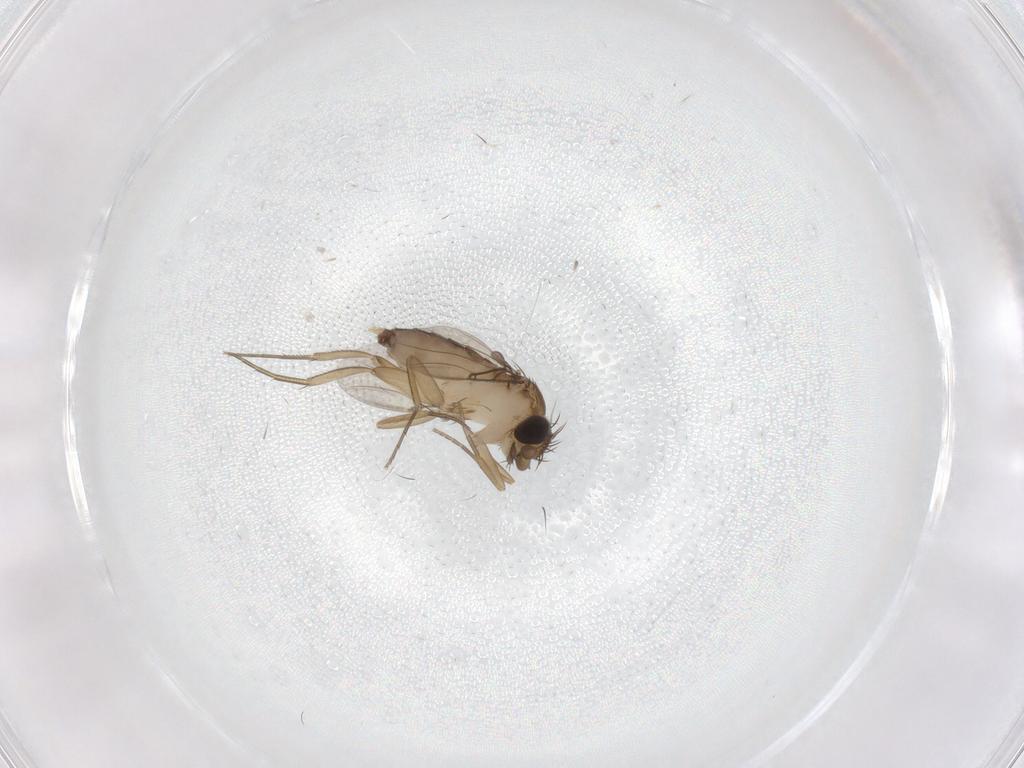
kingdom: Animalia
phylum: Arthropoda
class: Insecta
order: Diptera
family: Phoridae
